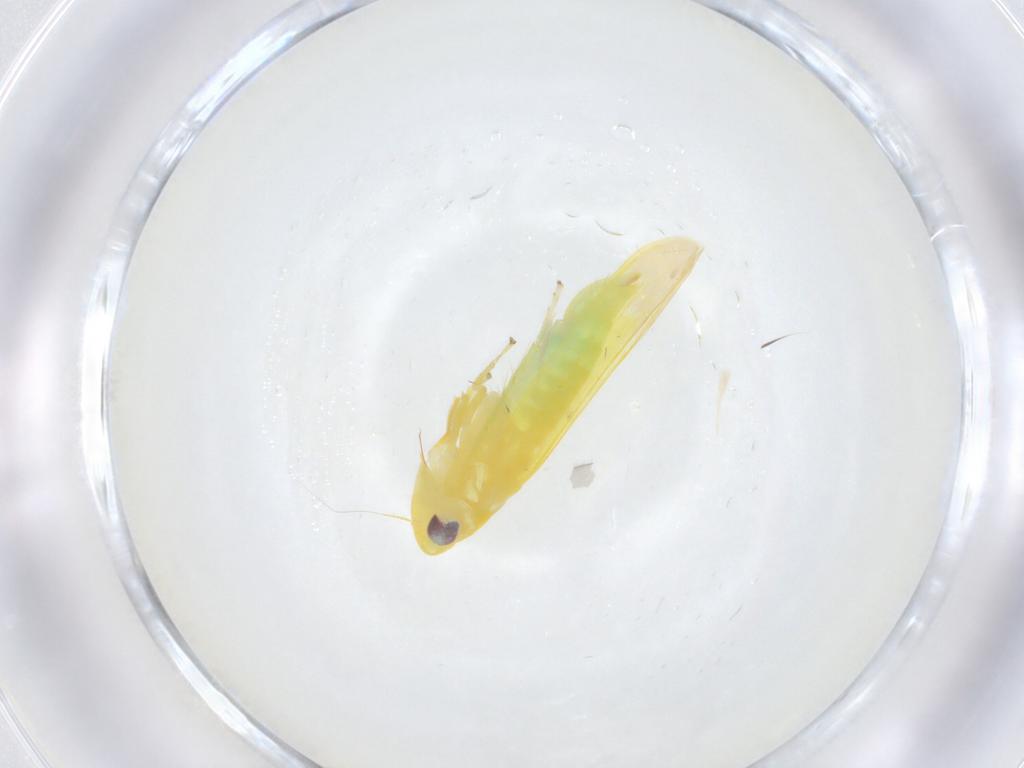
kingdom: Animalia
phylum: Arthropoda
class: Insecta
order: Hemiptera
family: Cicadellidae
